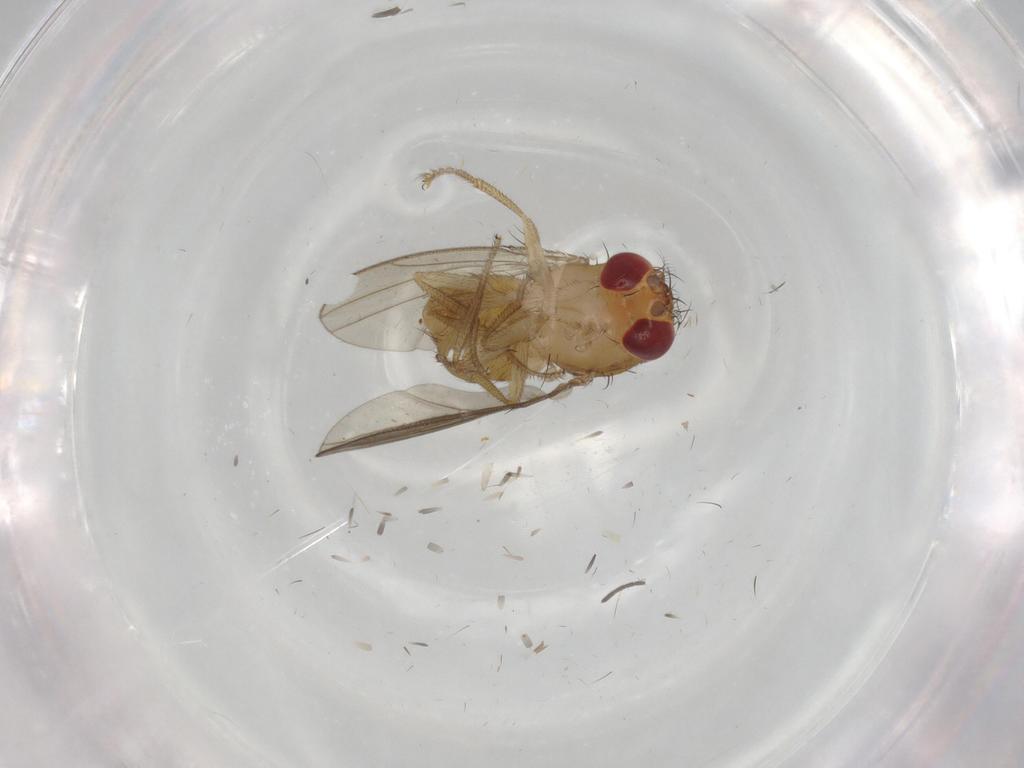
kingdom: Animalia
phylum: Arthropoda
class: Insecta
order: Diptera
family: Drosophilidae
